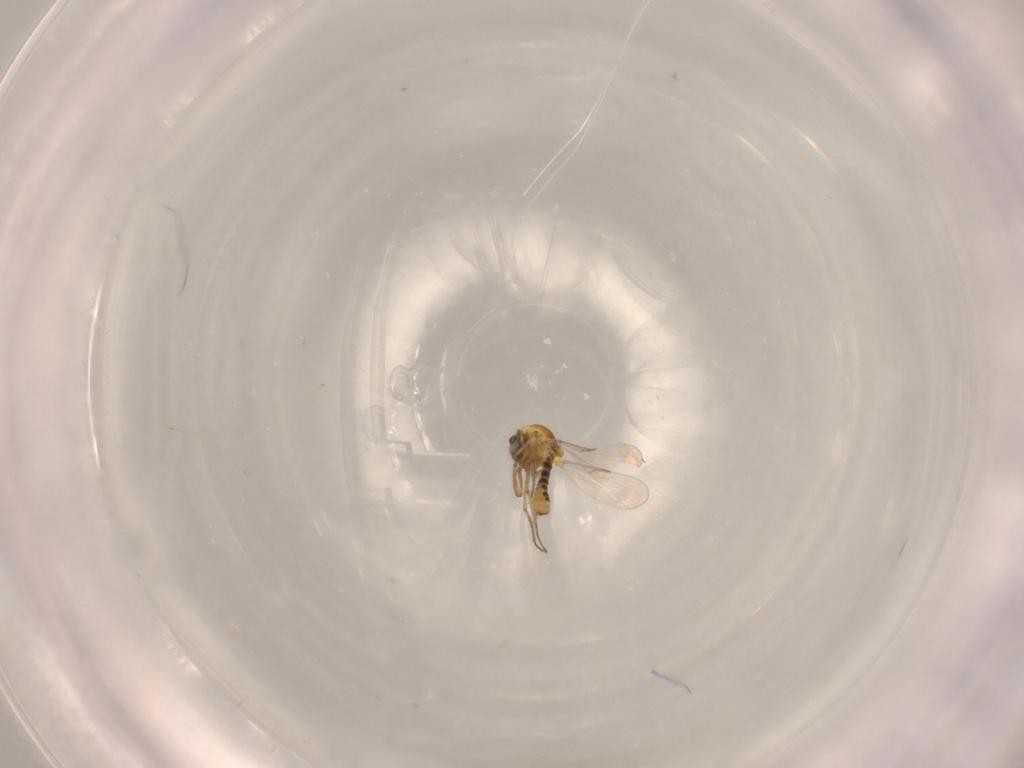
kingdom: Animalia
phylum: Arthropoda
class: Insecta
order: Diptera
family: Cecidomyiidae
